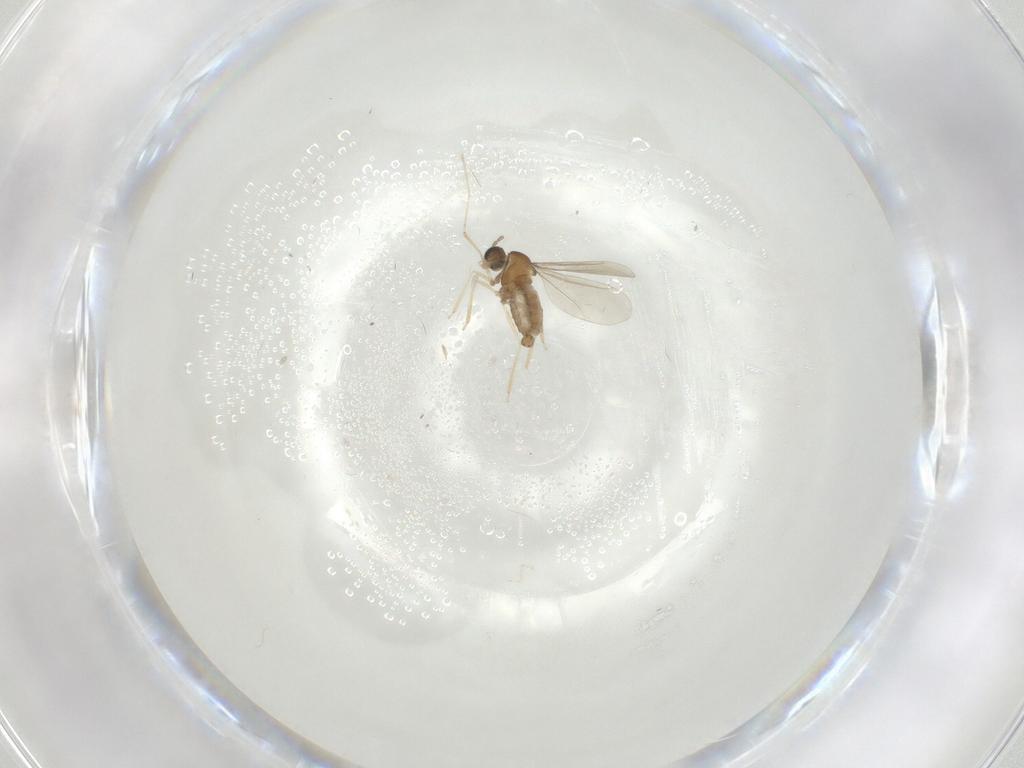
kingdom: Animalia
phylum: Arthropoda
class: Insecta
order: Diptera
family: Cecidomyiidae
